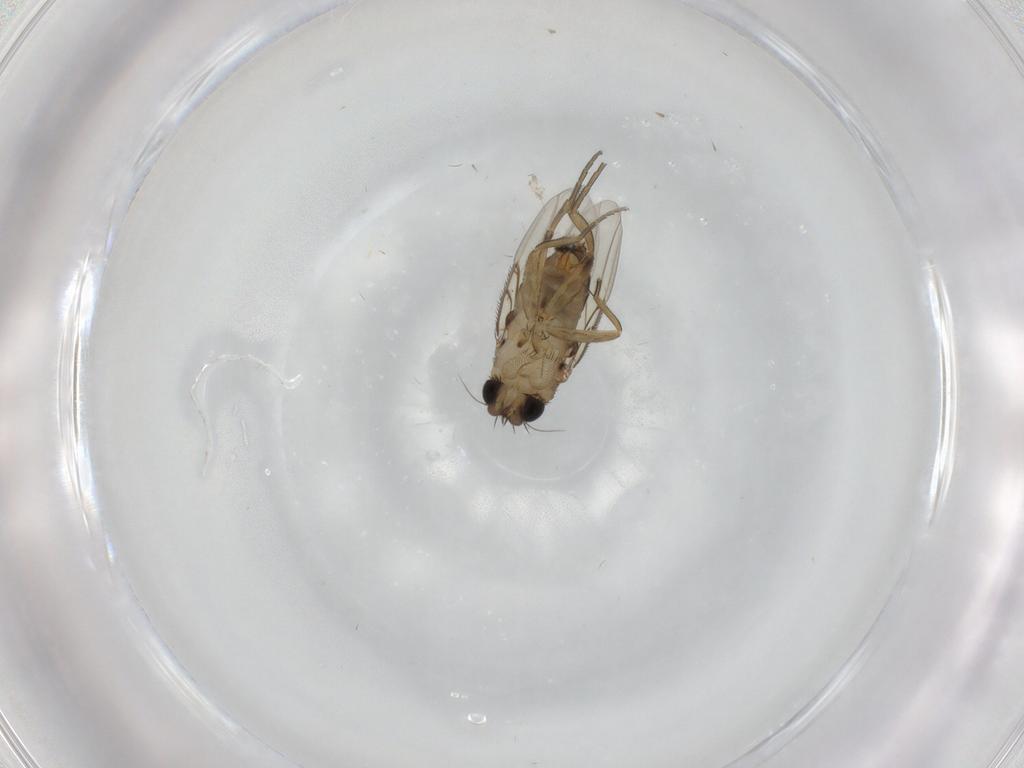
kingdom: Animalia
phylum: Arthropoda
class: Insecta
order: Diptera
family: Phoridae
